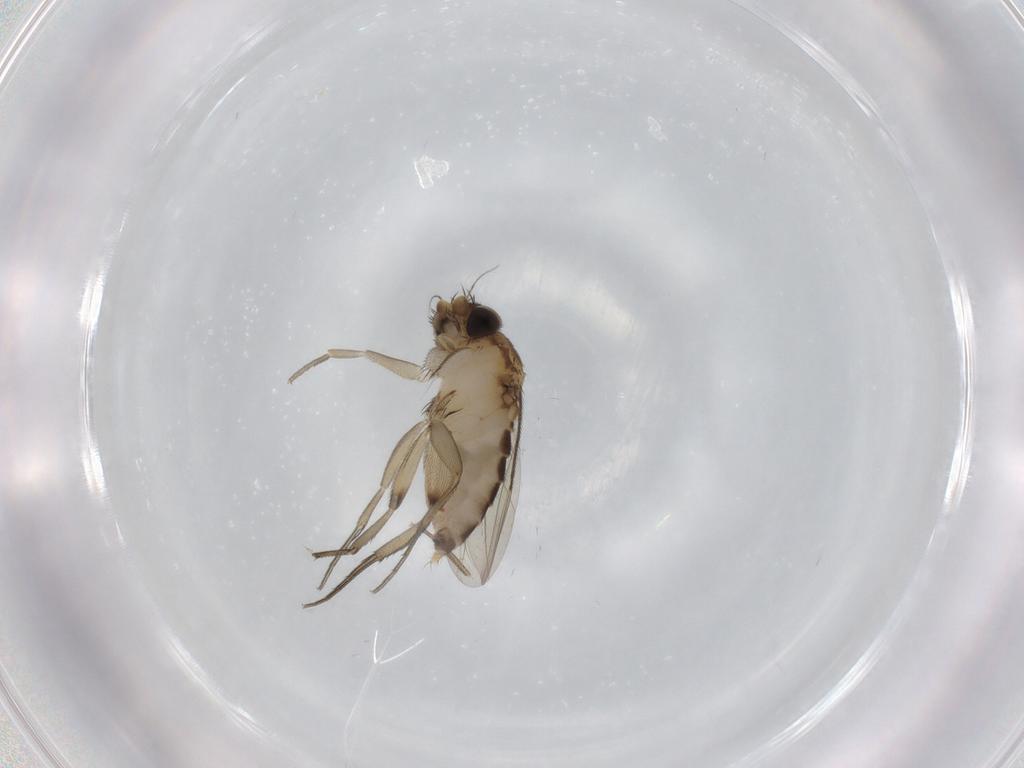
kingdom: Animalia
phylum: Arthropoda
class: Insecta
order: Diptera
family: Phoridae
